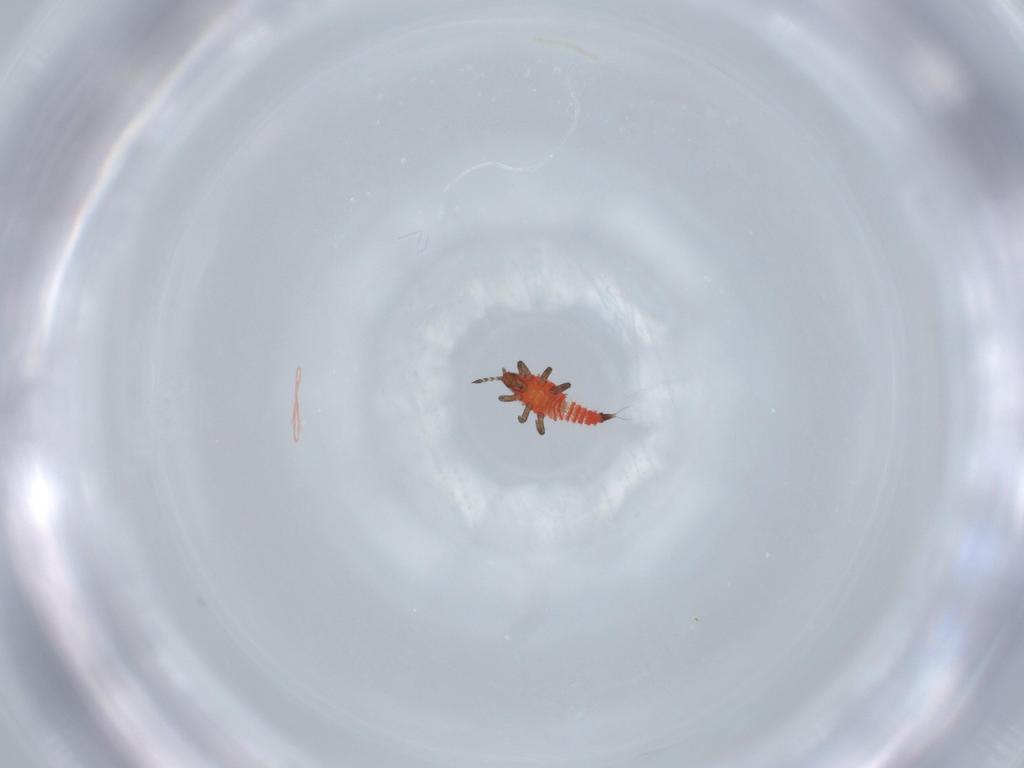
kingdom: Animalia
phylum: Arthropoda
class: Insecta
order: Thysanoptera
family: Phlaeothripidae
